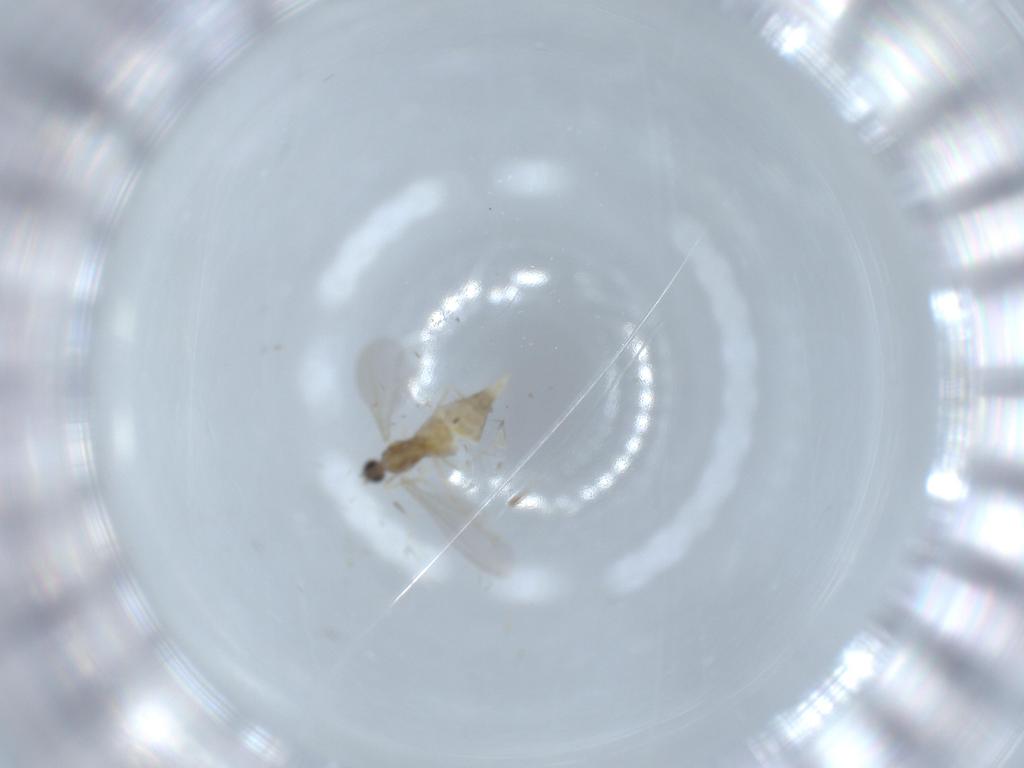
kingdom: Animalia
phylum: Arthropoda
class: Insecta
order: Diptera
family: Cecidomyiidae
